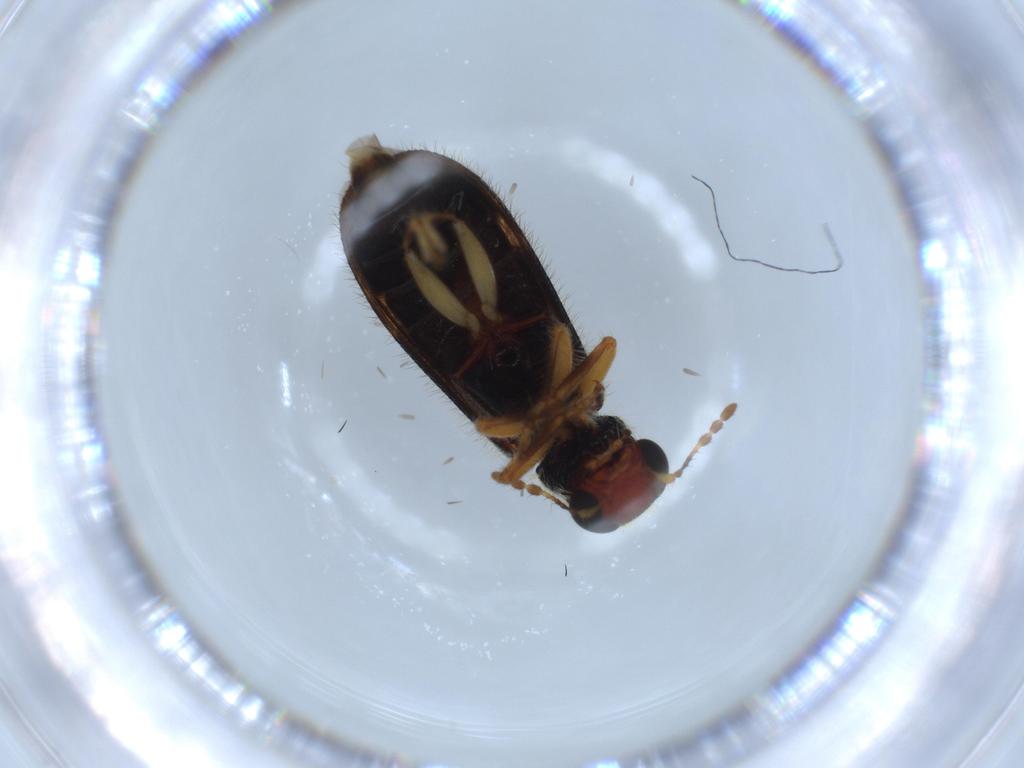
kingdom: Animalia
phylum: Arthropoda
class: Insecta
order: Coleoptera
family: Cleridae
